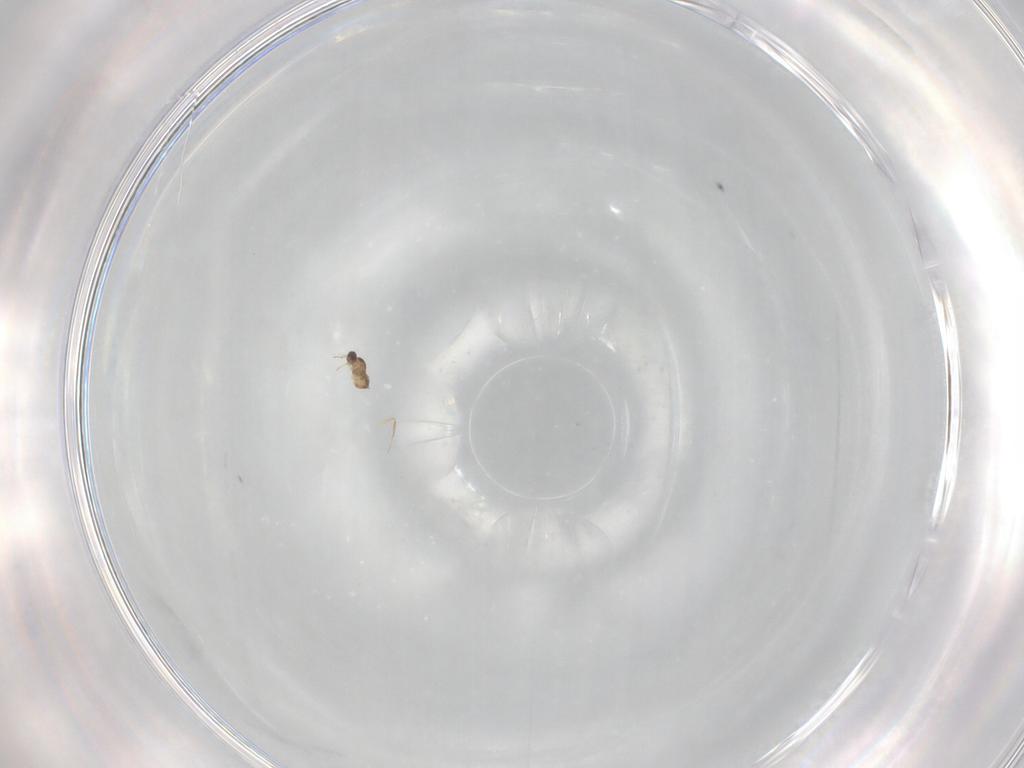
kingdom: Animalia
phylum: Arthropoda
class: Insecta
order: Hymenoptera
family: Mymaridae
